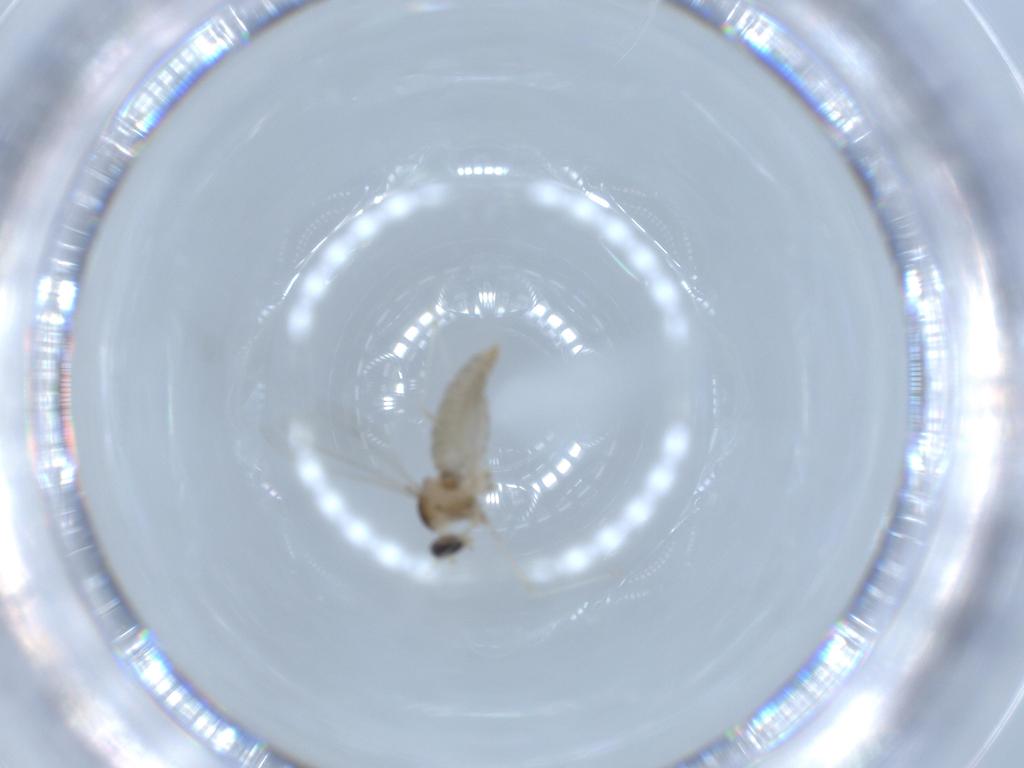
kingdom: Animalia
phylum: Arthropoda
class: Insecta
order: Diptera
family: Cecidomyiidae
